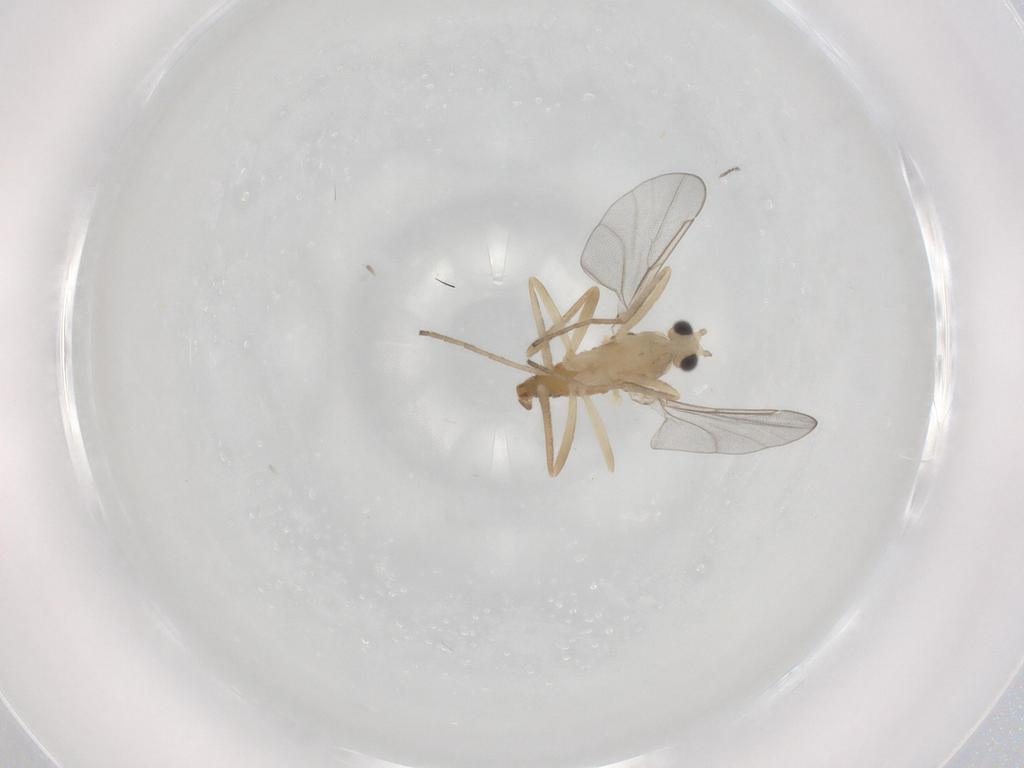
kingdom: Animalia
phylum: Arthropoda
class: Insecta
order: Diptera
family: Cecidomyiidae
